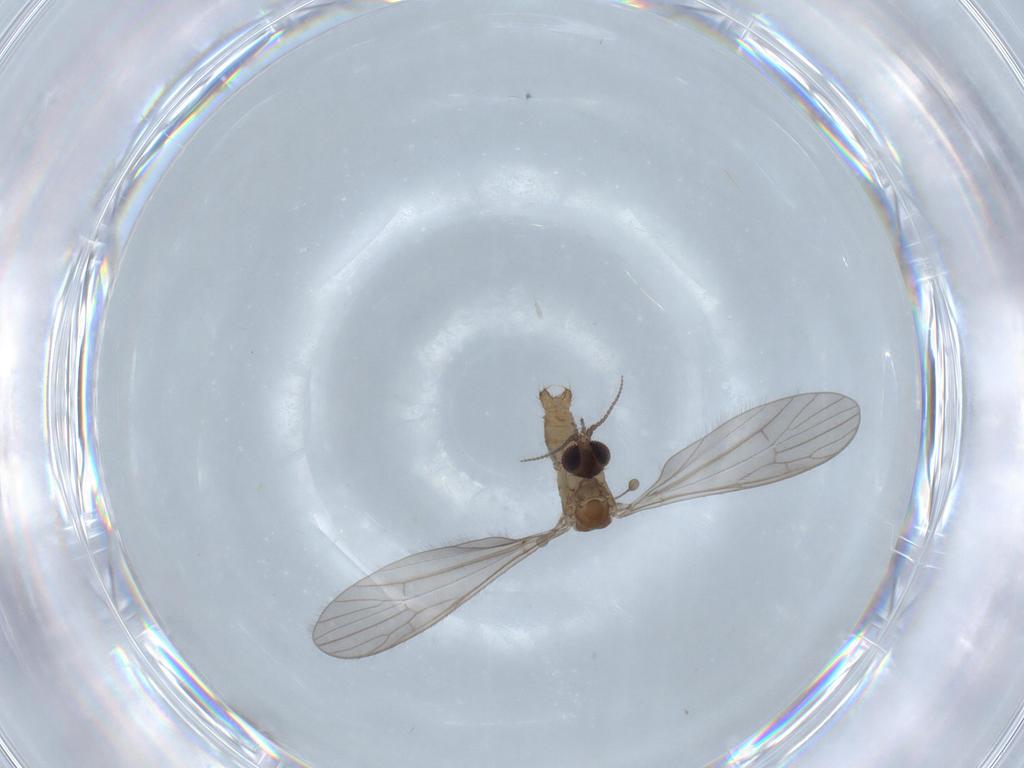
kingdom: Animalia
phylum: Arthropoda
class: Insecta
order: Diptera
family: Chironomidae
